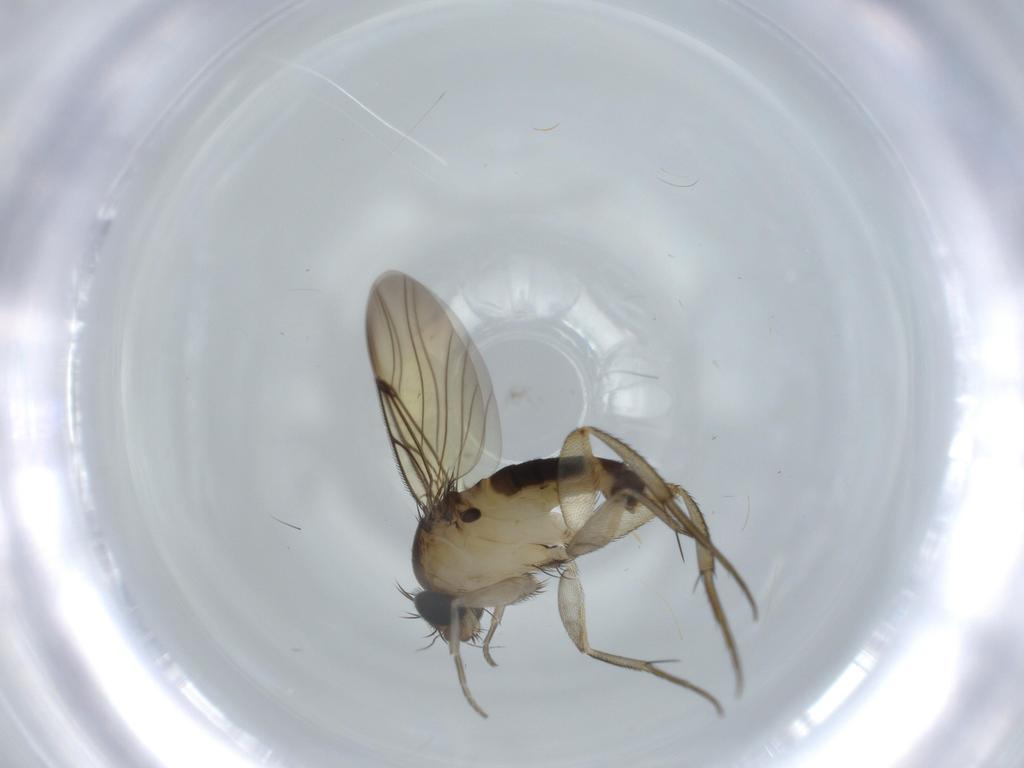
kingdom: Animalia
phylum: Arthropoda
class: Insecta
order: Diptera
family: Phoridae
